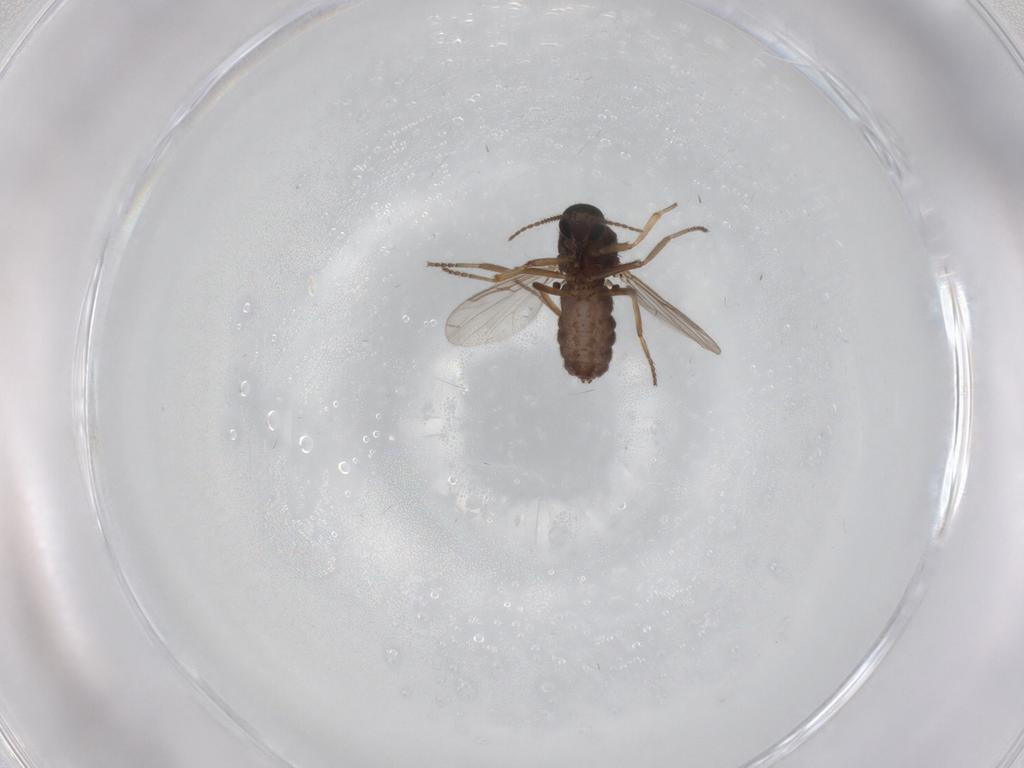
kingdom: Animalia
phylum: Arthropoda
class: Insecta
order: Diptera
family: Ceratopogonidae
